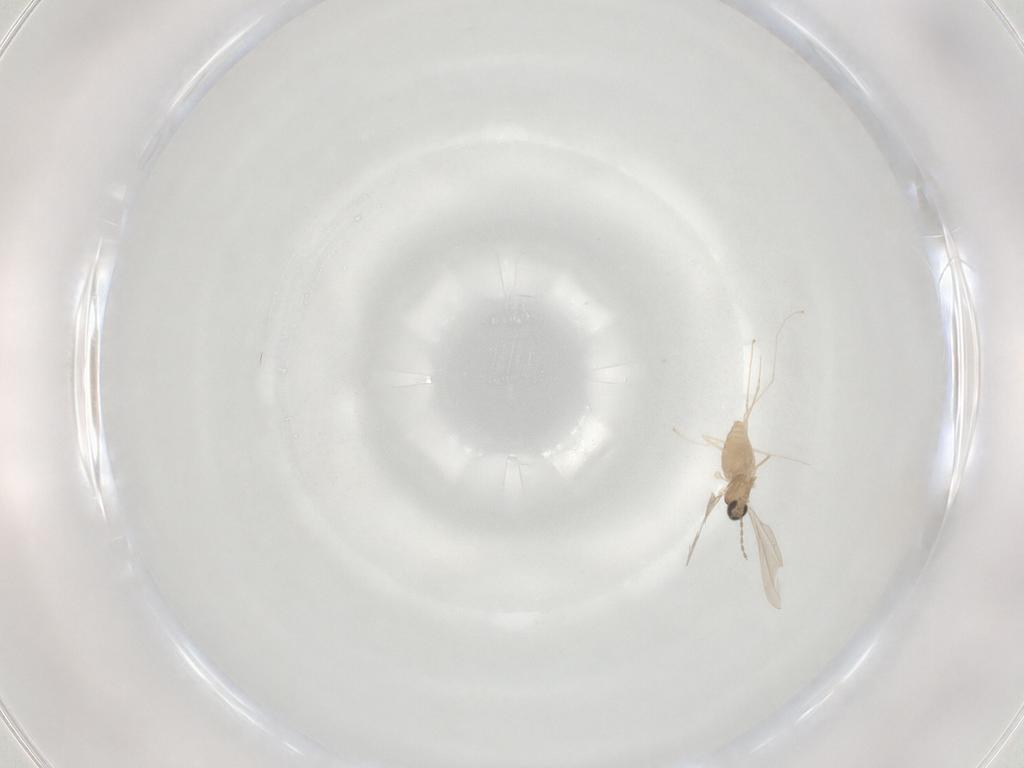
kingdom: Animalia
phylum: Arthropoda
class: Insecta
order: Diptera
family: Cecidomyiidae
